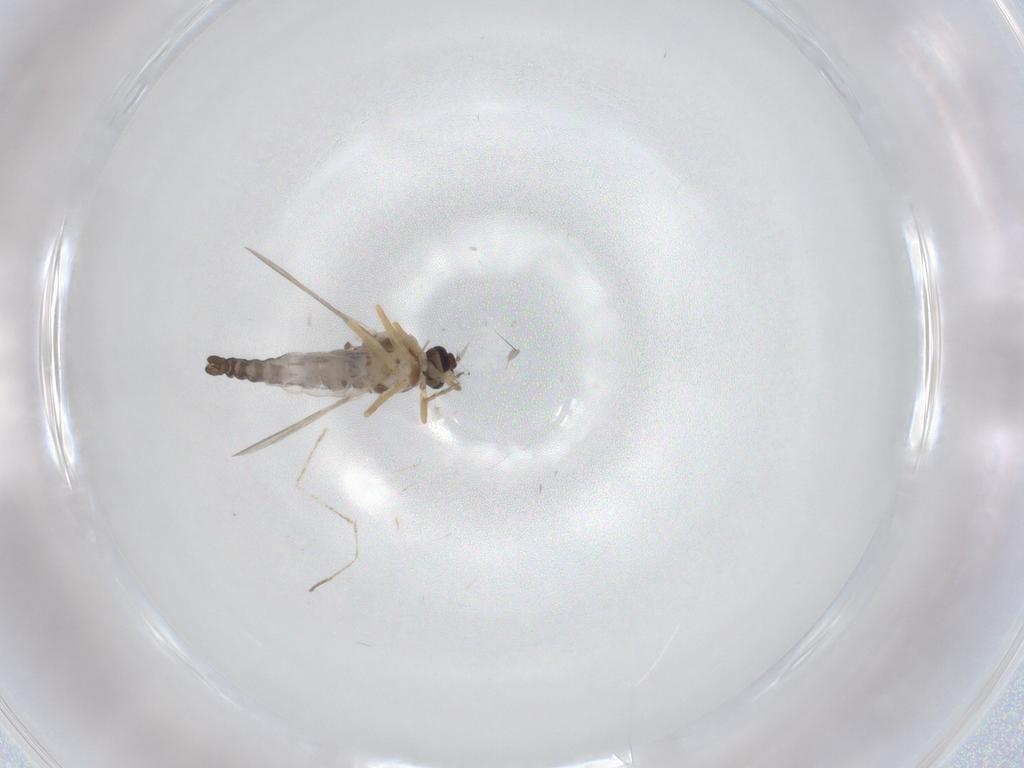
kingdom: Animalia
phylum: Arthropoda
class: Insecta
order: Diptera
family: Ceratopogonidae
